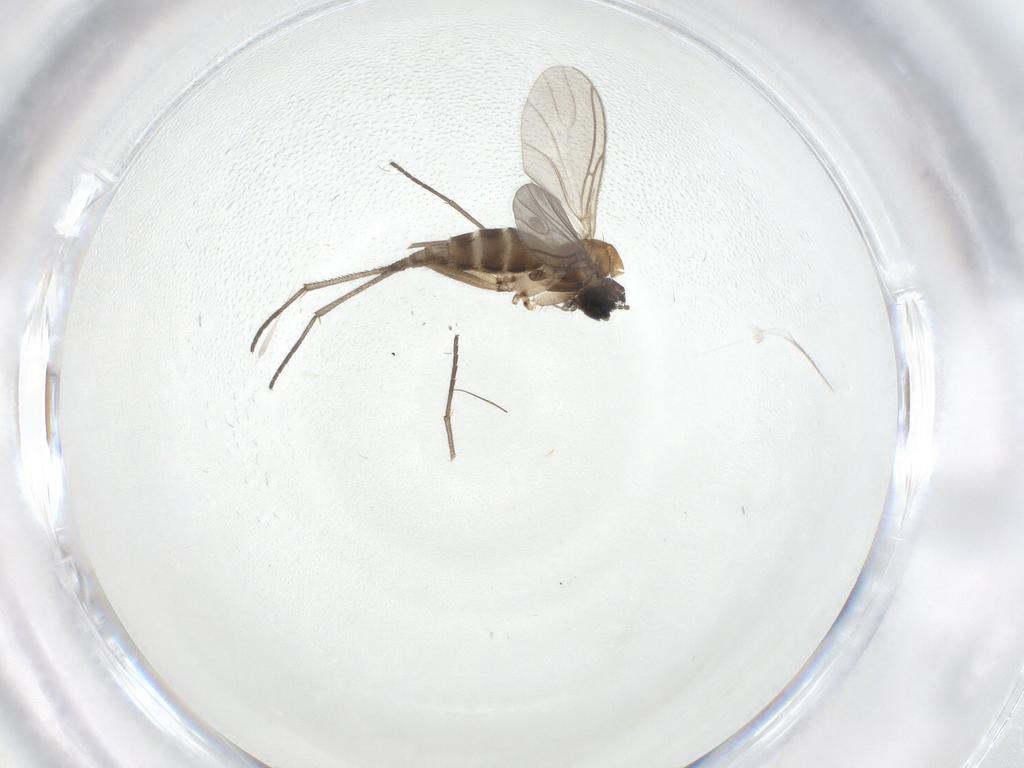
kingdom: Animalia
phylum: Arthropoda
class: Insecta
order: Diptera
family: Sciaridae
